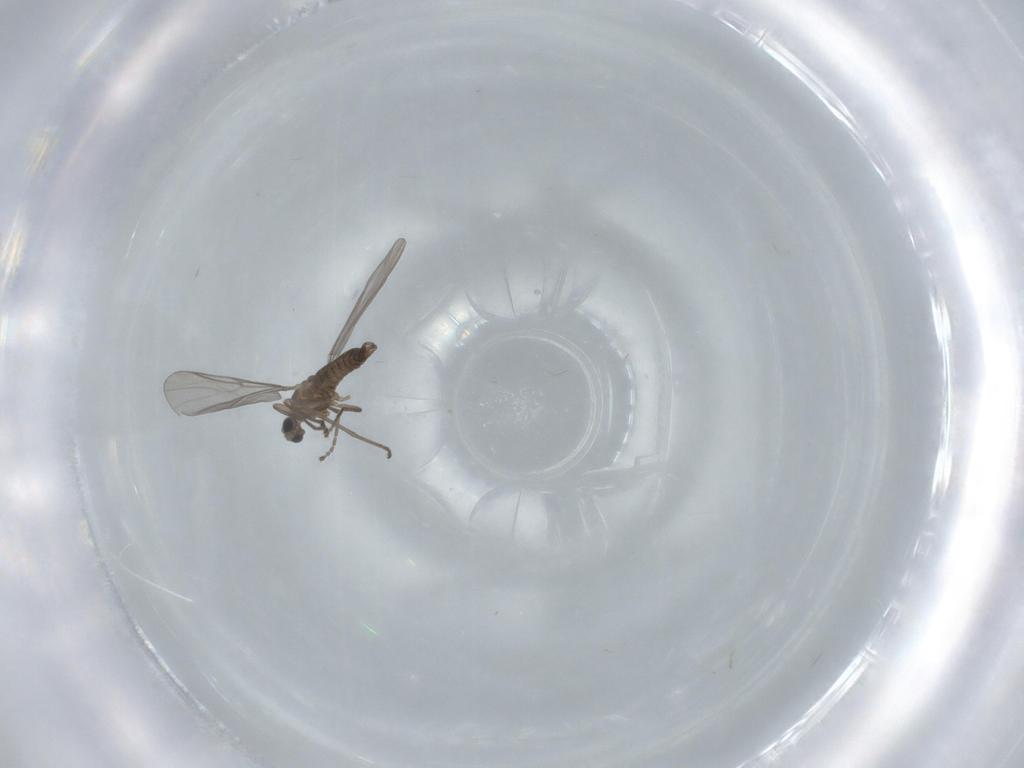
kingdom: Animalia
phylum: Arthropoda
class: Insecta
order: Diptera
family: Cecidomyiidae
